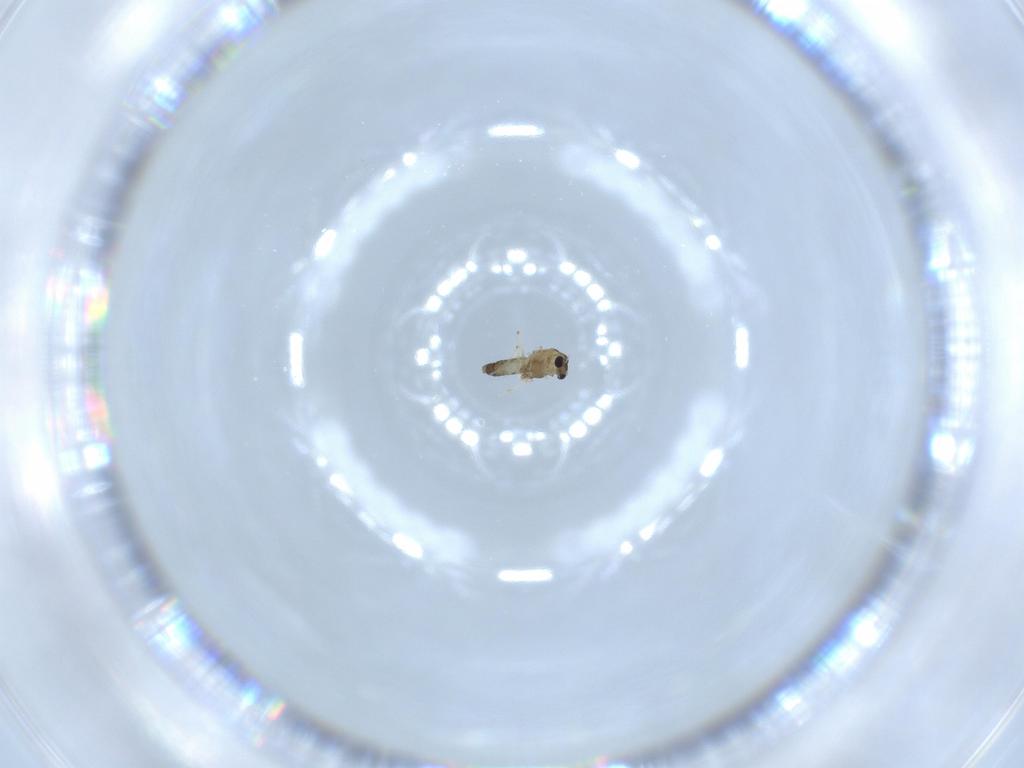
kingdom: Animalia
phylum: Arthropoda
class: Insecta
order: Diptera
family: Chironomidae
